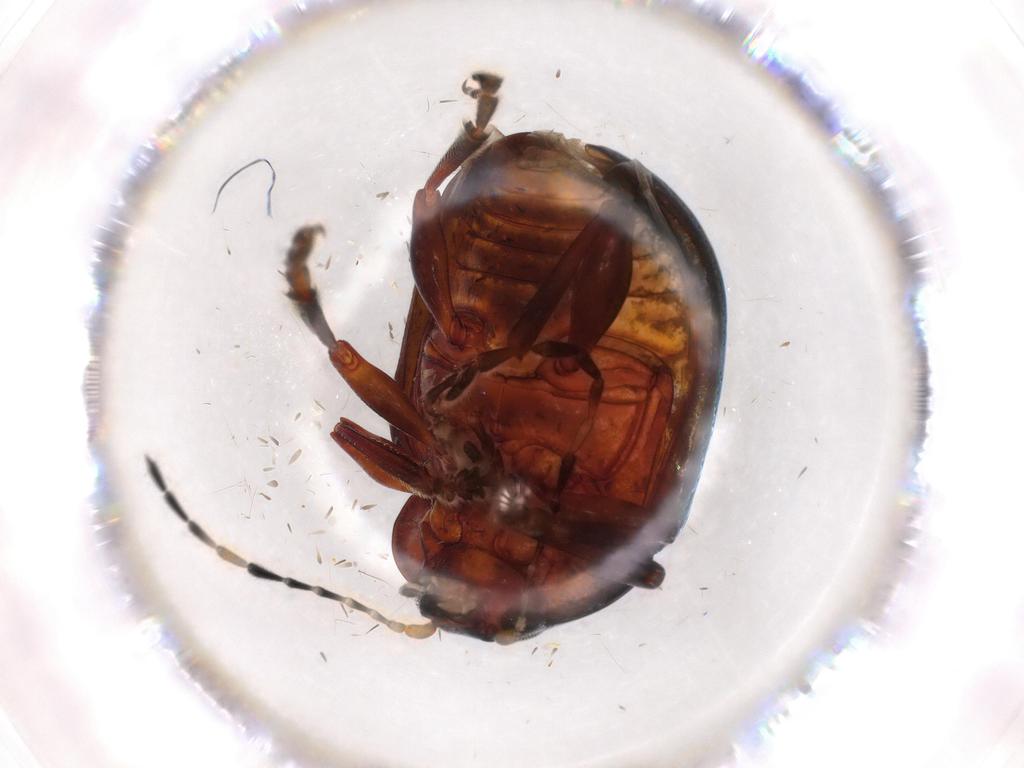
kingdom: Animalia
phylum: Arthropoda
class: Insecta
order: Coleoptera
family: Chrysomelidae
